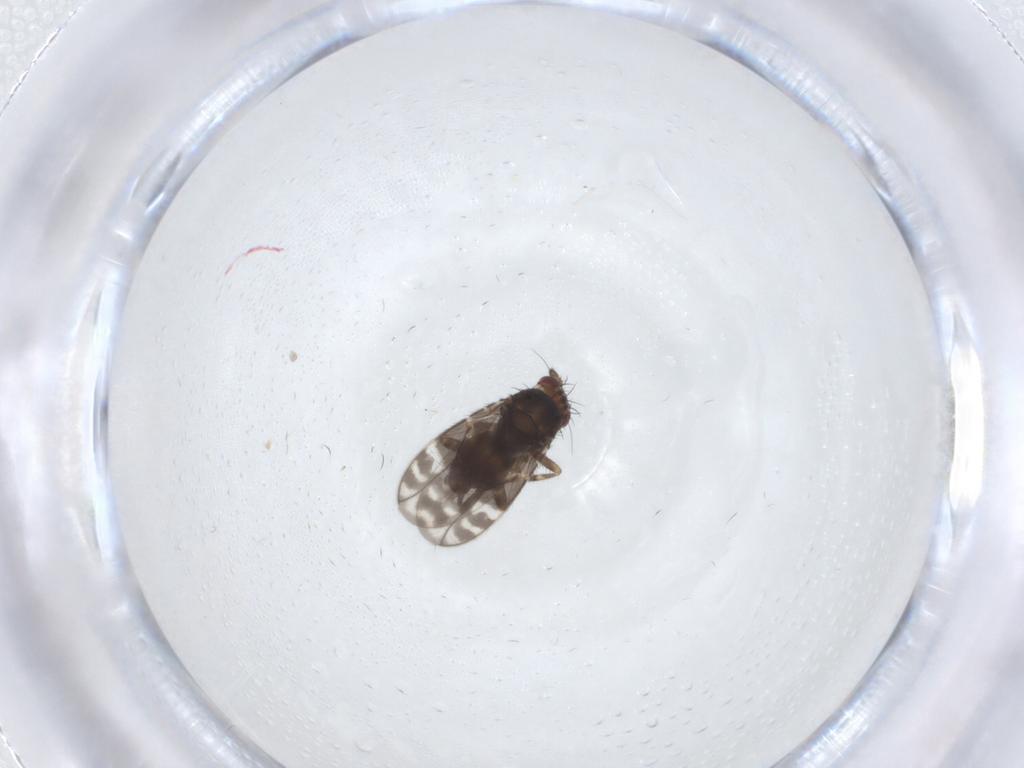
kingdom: Animalia
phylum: Arthropoda
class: Insecta
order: Diptera
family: Sphaeroceridae
